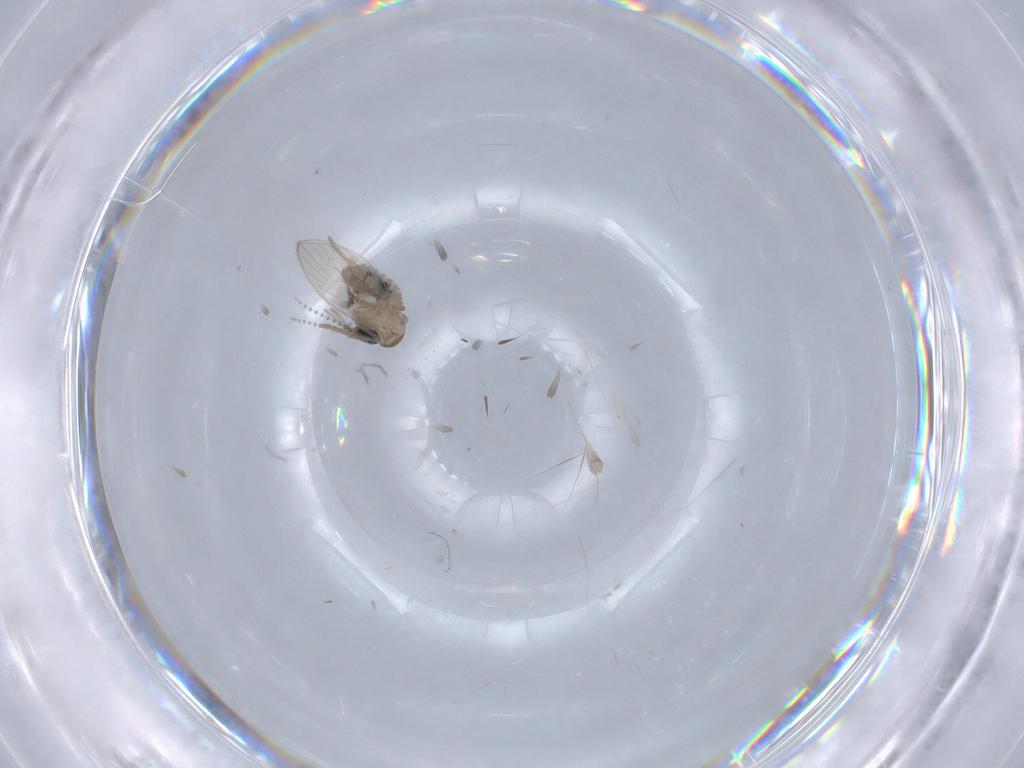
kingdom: Animalia
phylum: Arthropoda
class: Insecta
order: Diptera
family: Psychodidae
